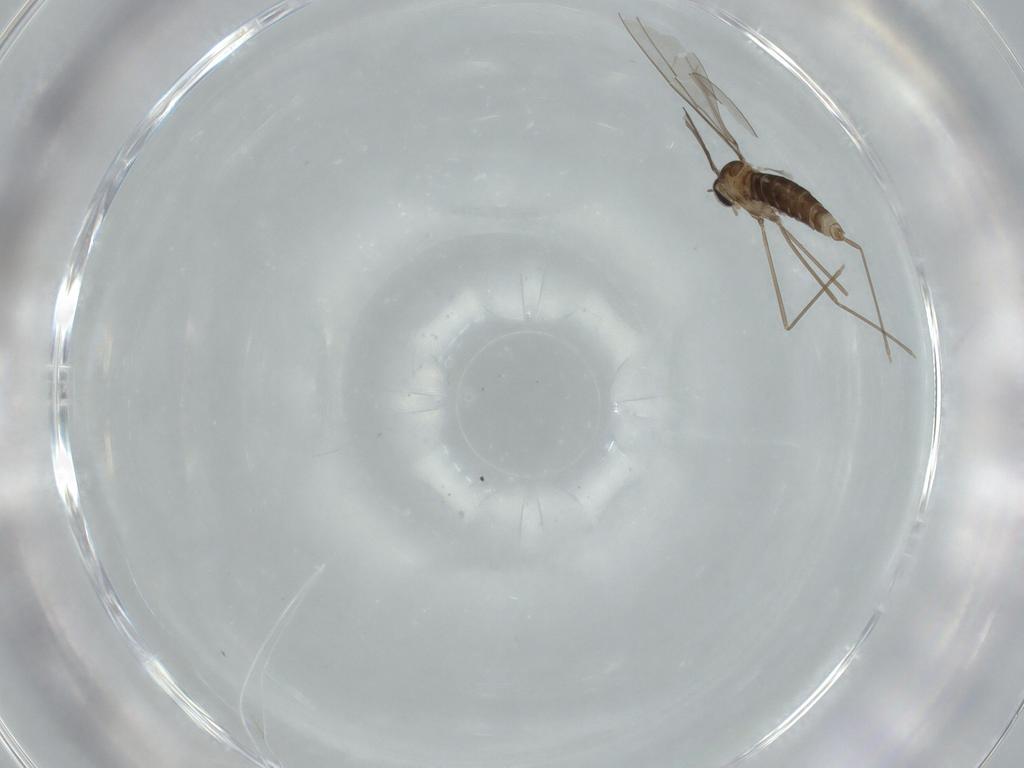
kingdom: Animalia
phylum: Arthropoda
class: Insecta
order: Diptera
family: Cecidomyiidae
